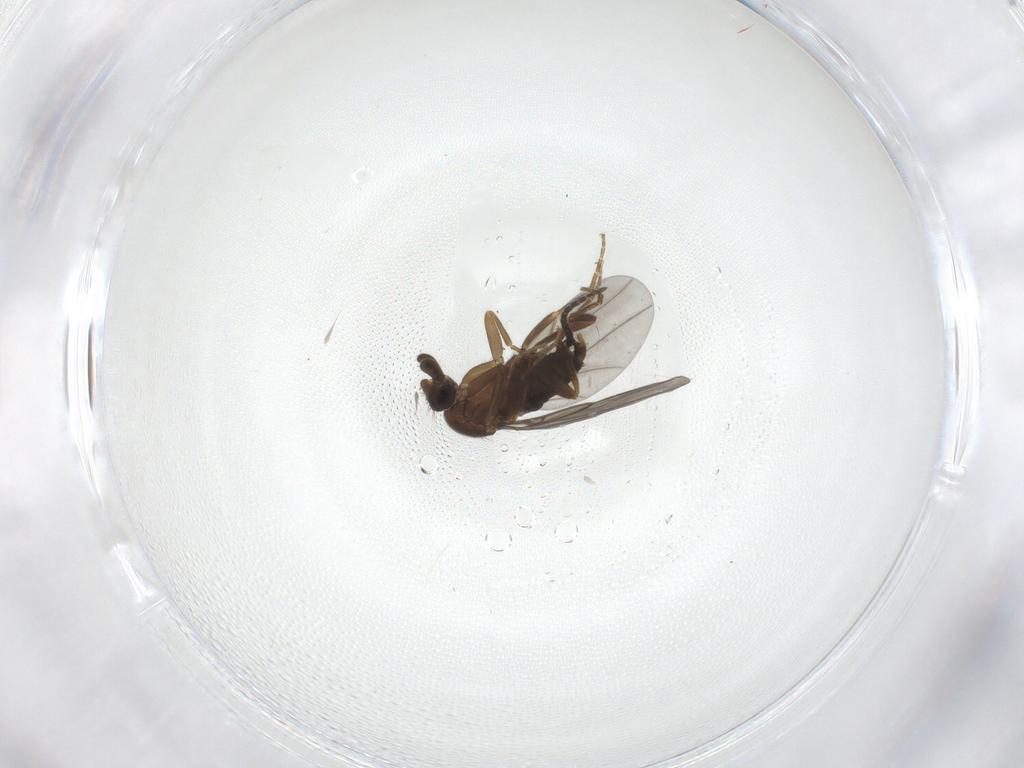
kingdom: Animalia
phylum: Arthropoda
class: Insecta
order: Diptera
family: Phoridae
